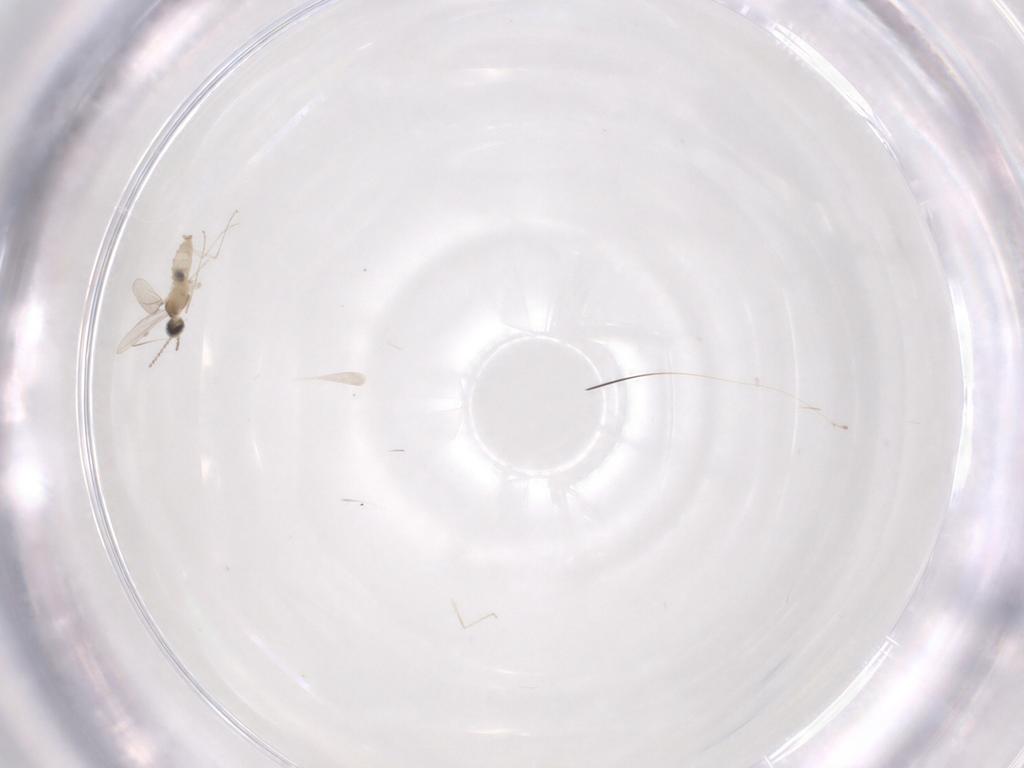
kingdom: Animalia
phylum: Arthropoda
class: Insecta
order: Diptera
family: Cecidomyiidae
